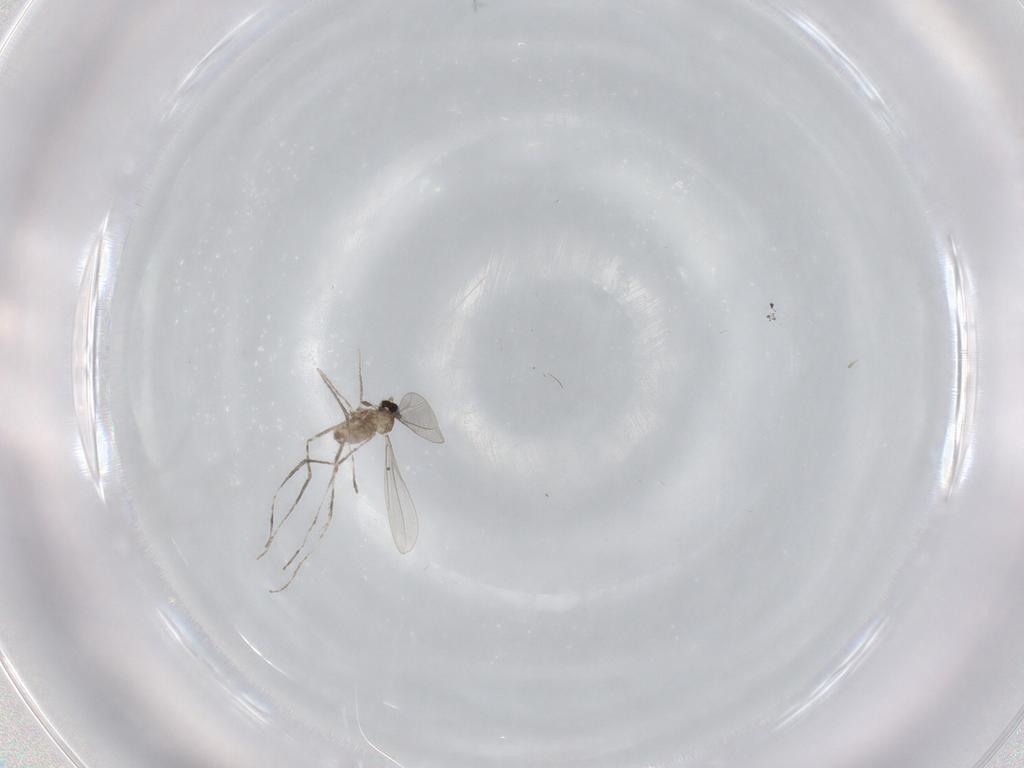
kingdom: Animalia
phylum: Arthropoda
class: Insecta
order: Diptera
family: Cecidomyiidae
